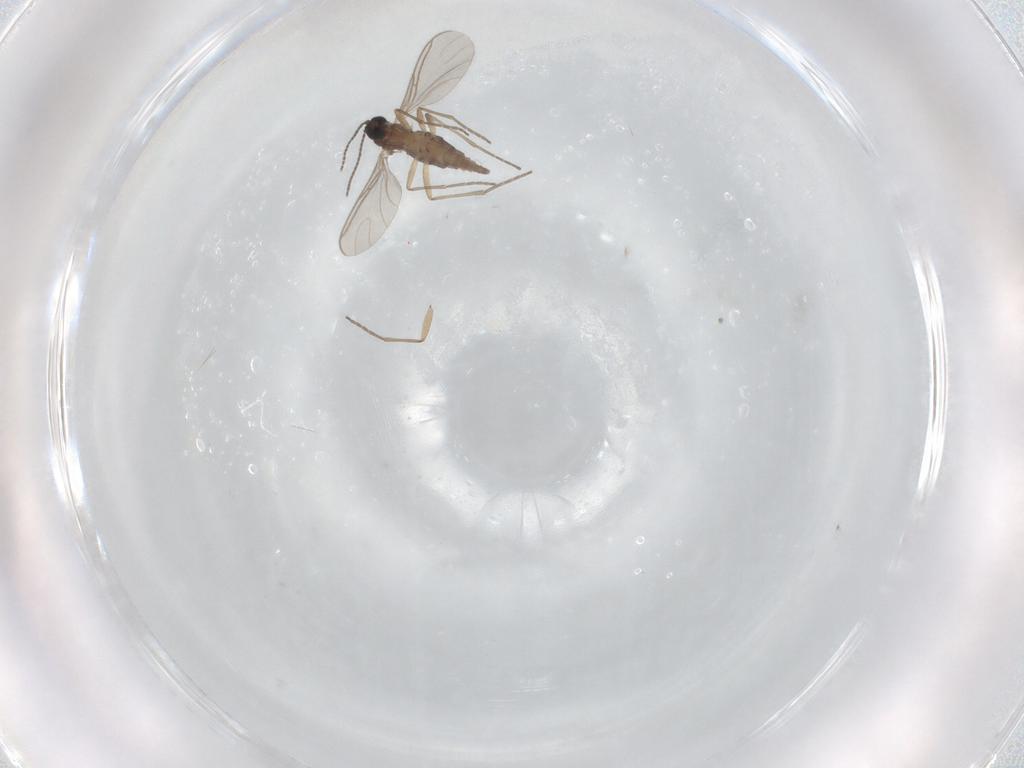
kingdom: Animalia
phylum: Arthropoda
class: Insecta
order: Diptera
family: Sciaridae
